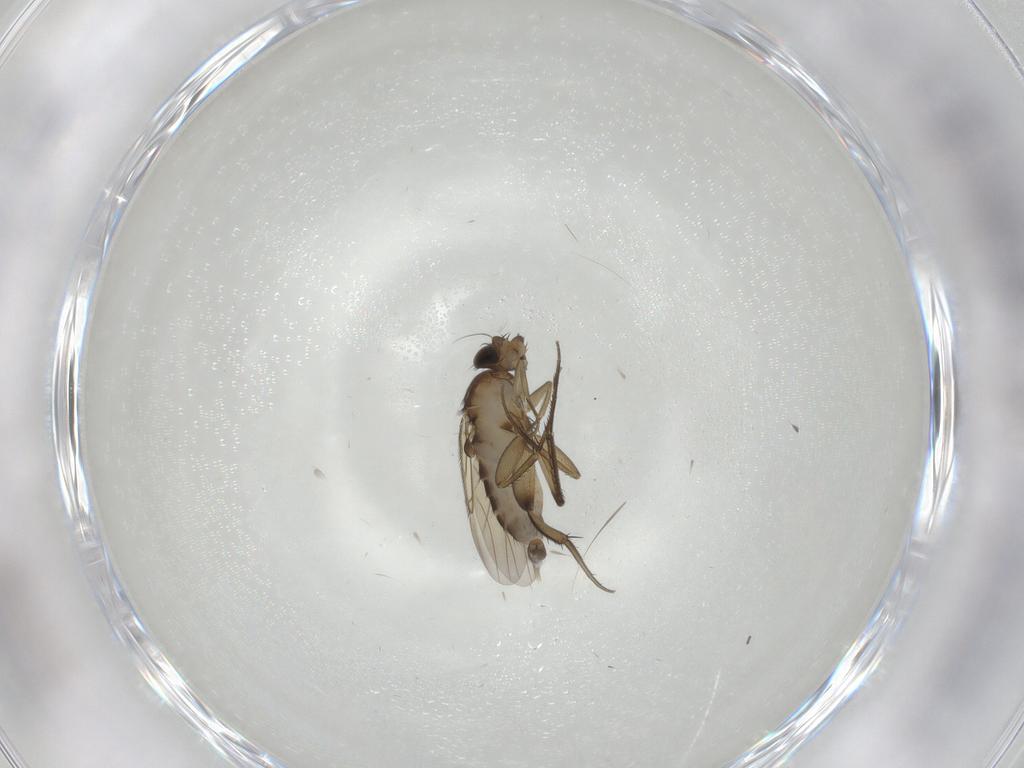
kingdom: Animalia
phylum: Arthropoda
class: Insecta
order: Diptera
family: Phoridae
